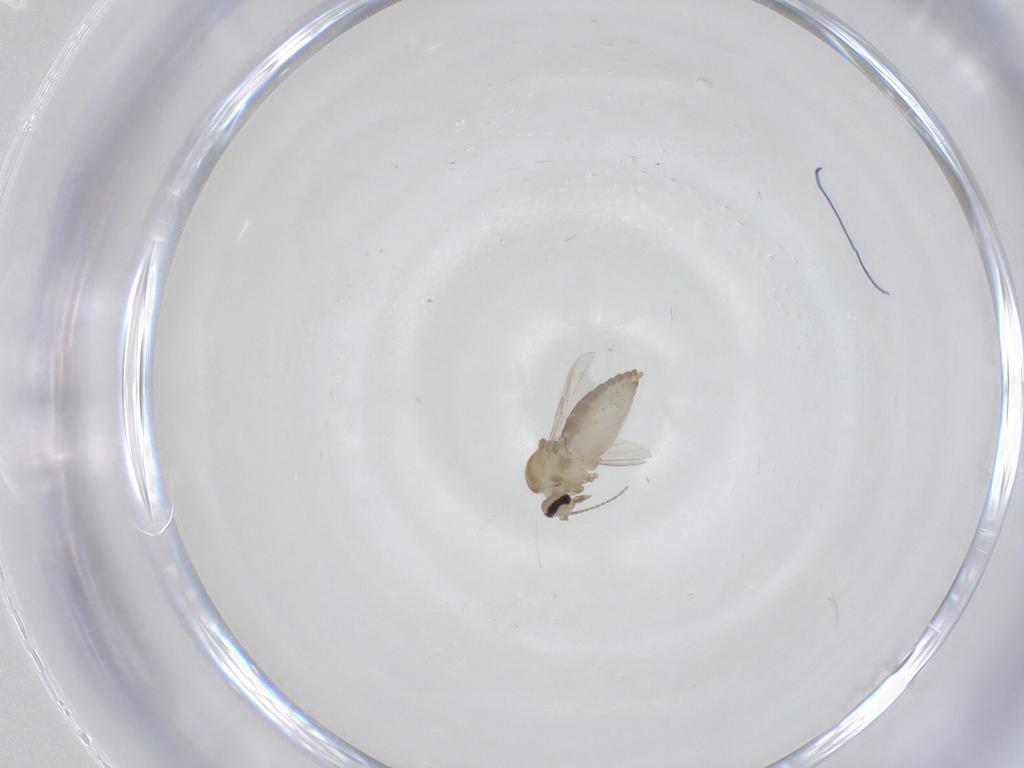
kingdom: Animalia
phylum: Arthropoda
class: Insecta
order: Diptera
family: Ceratopogonidae
